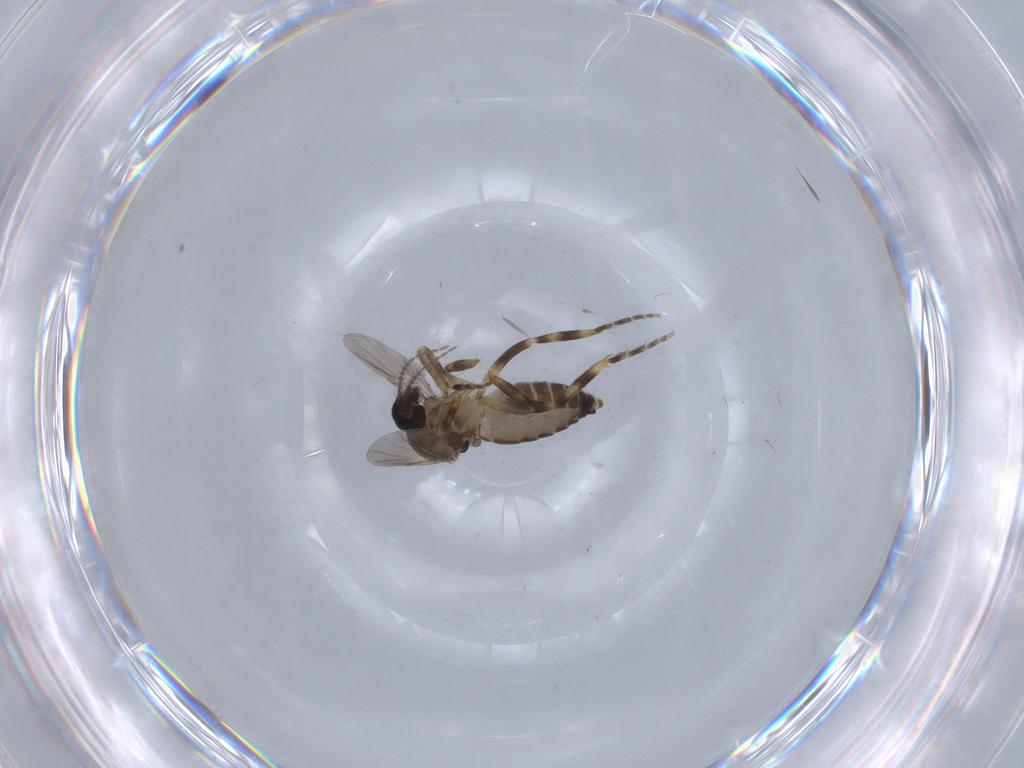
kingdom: Animalia
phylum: Arthropoda
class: Insecta
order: Diptera
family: Ceratopogonidae
